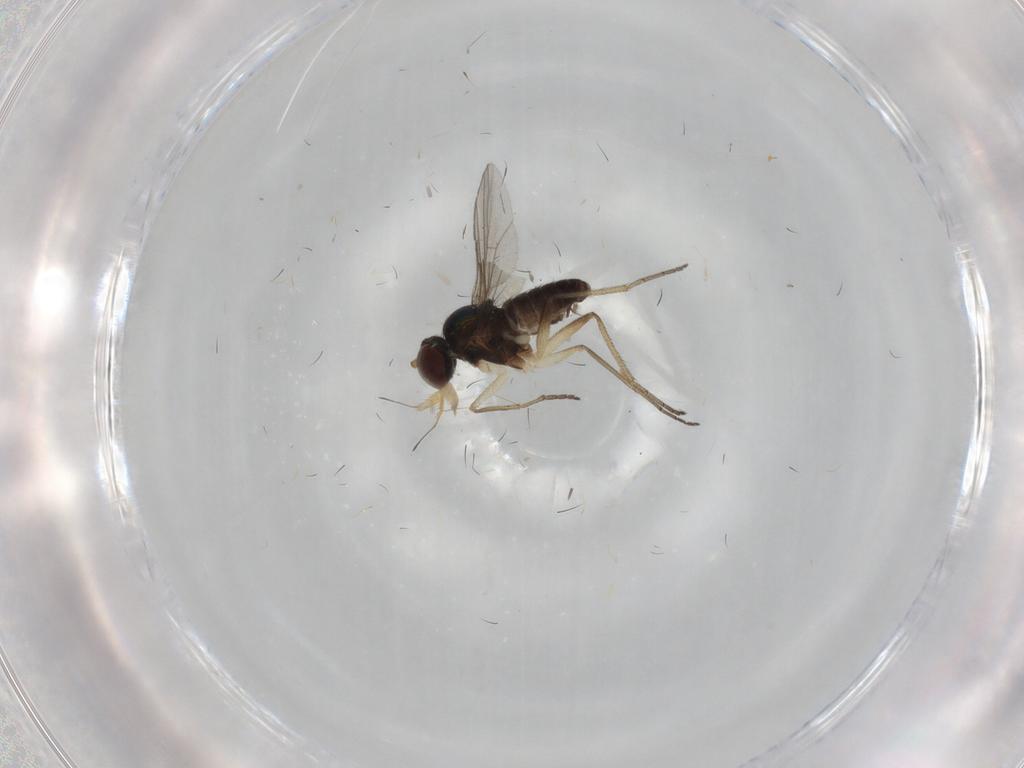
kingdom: Animalia
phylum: Arthropoda
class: Insecta
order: Diptera
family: Dolichopodidae
